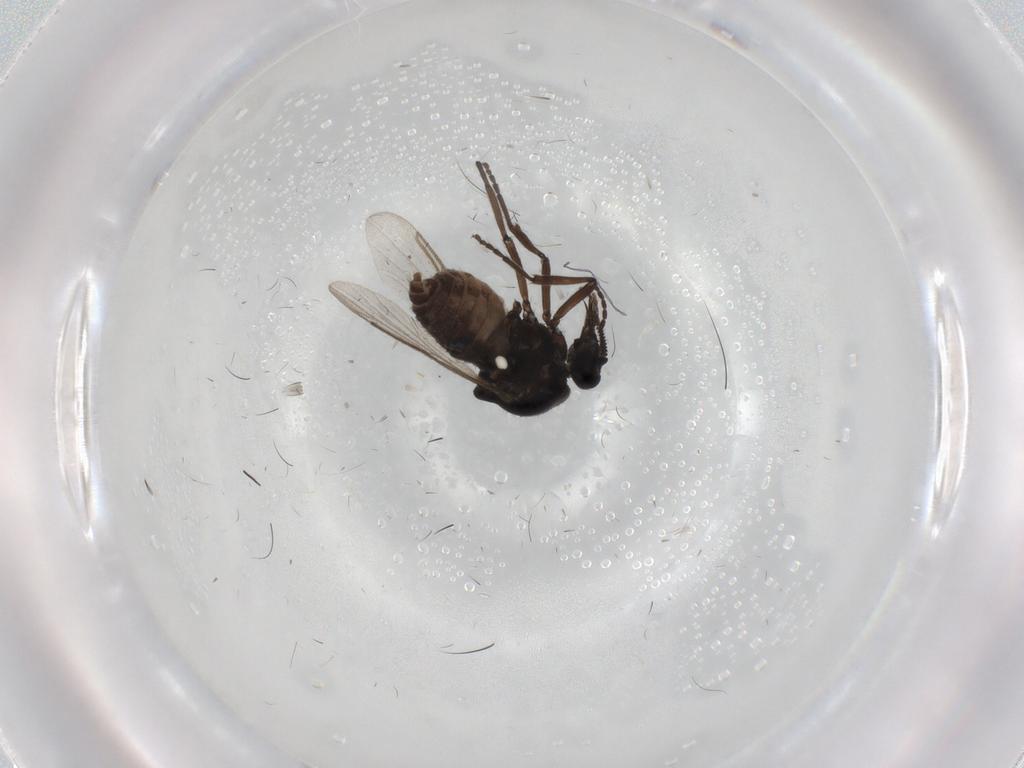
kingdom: Animalia
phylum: Arthropoda
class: Insecta
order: Diptera
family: Ceratopogonidae
